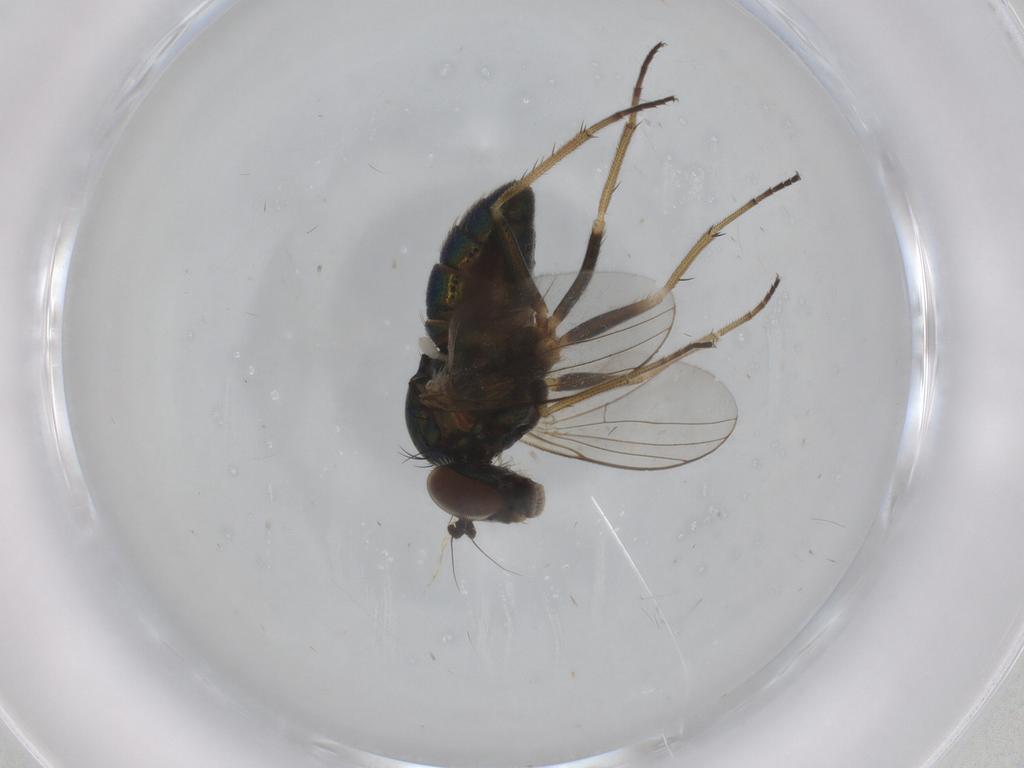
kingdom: Animalia
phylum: Arthropoda
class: Insecta
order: Diptera
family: Dolichopodidae
